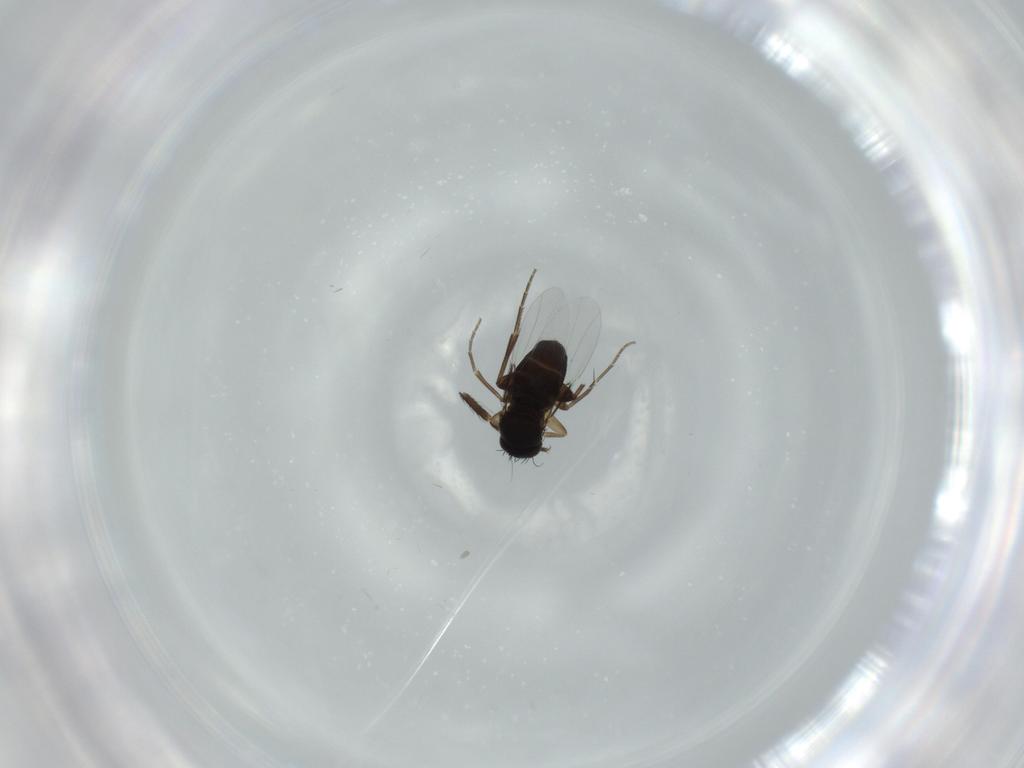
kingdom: Animalia
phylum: Arthropoda
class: Insecta
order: Diptera
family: Phoridae
